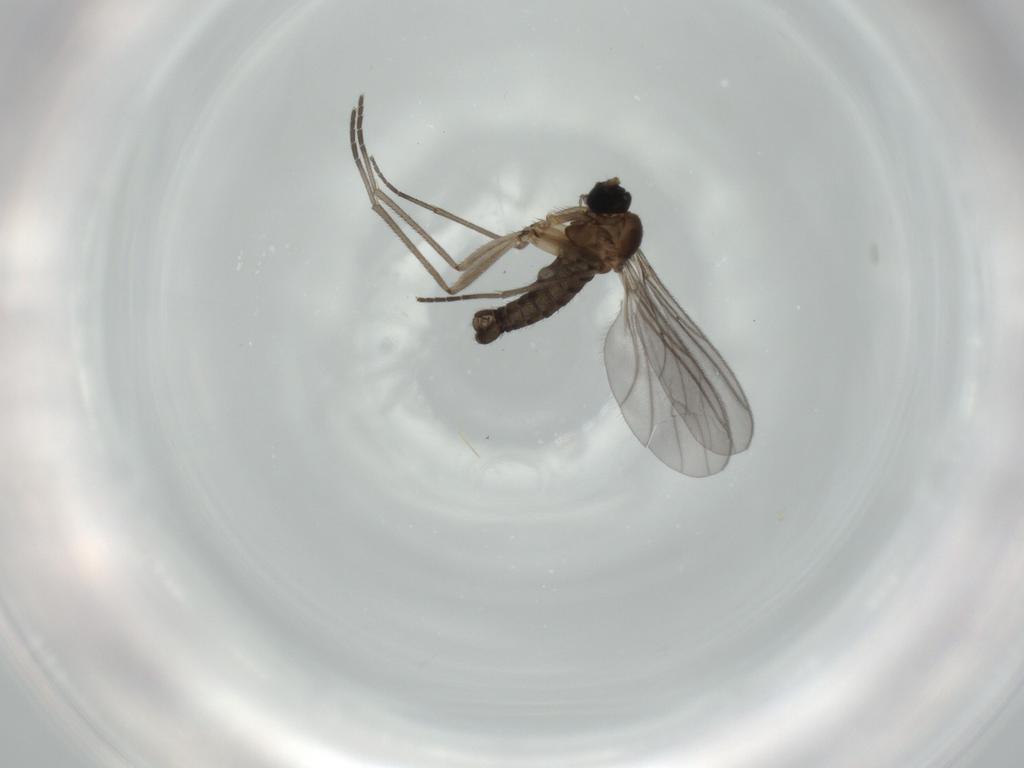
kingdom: Animalia
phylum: Arthropoda
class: Insecta
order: Diptera
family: Sciaridae
